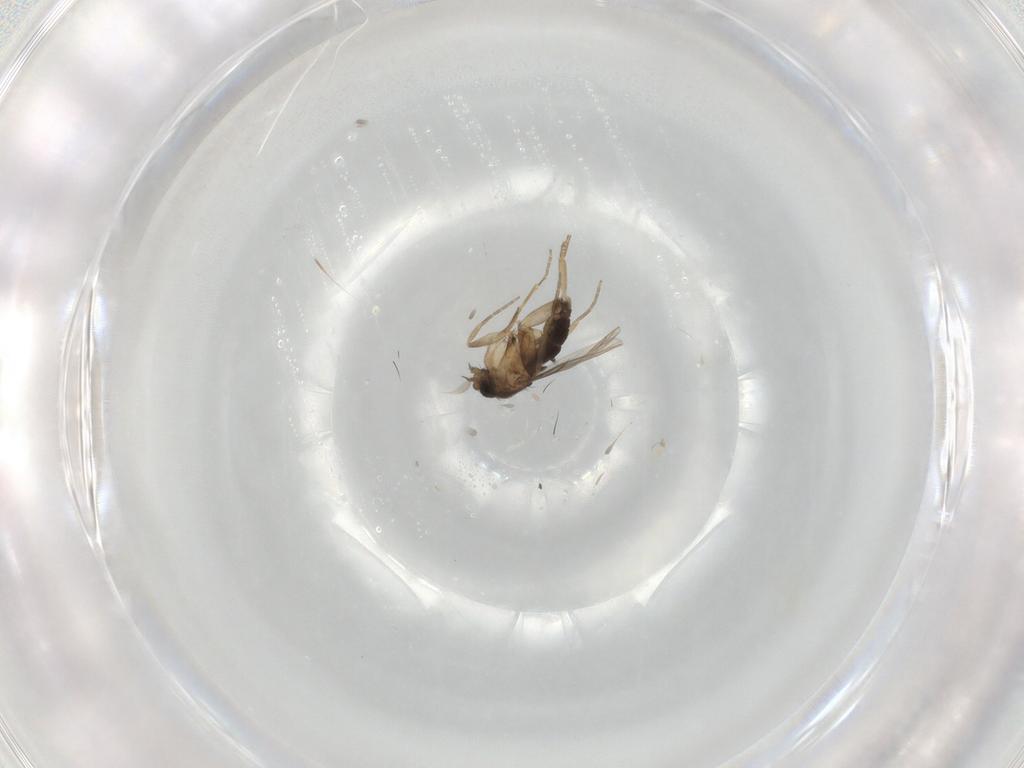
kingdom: Animalia
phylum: Arthropoda
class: Insecta
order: Diptera
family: Phoridae
